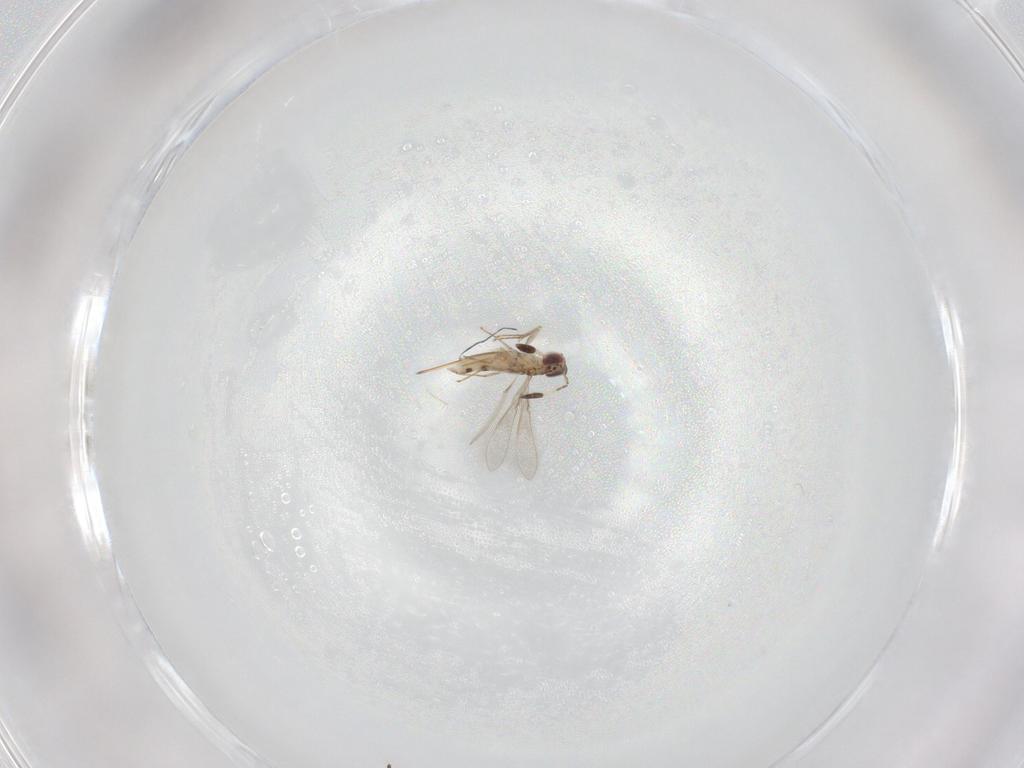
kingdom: Animalia
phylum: Arthropoda
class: Insecta
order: Hymenoptera
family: Mymaridae
